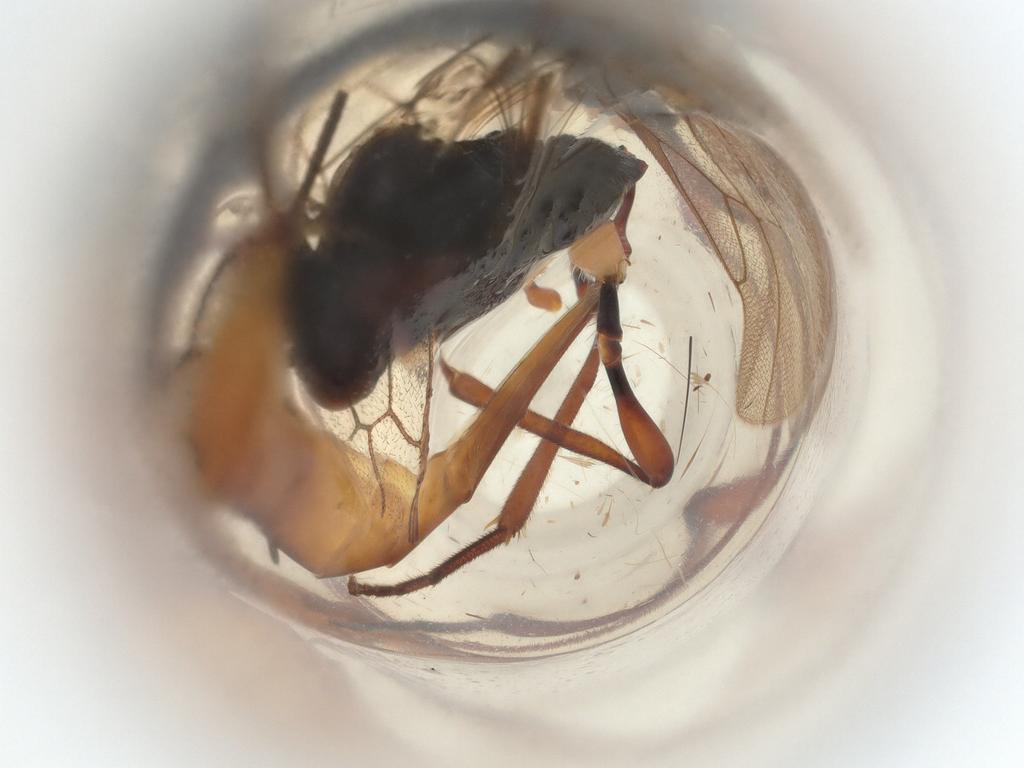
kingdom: Animalia
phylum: Arthropoda
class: Insecta
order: Hymenoptera
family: Ichneumonidae
